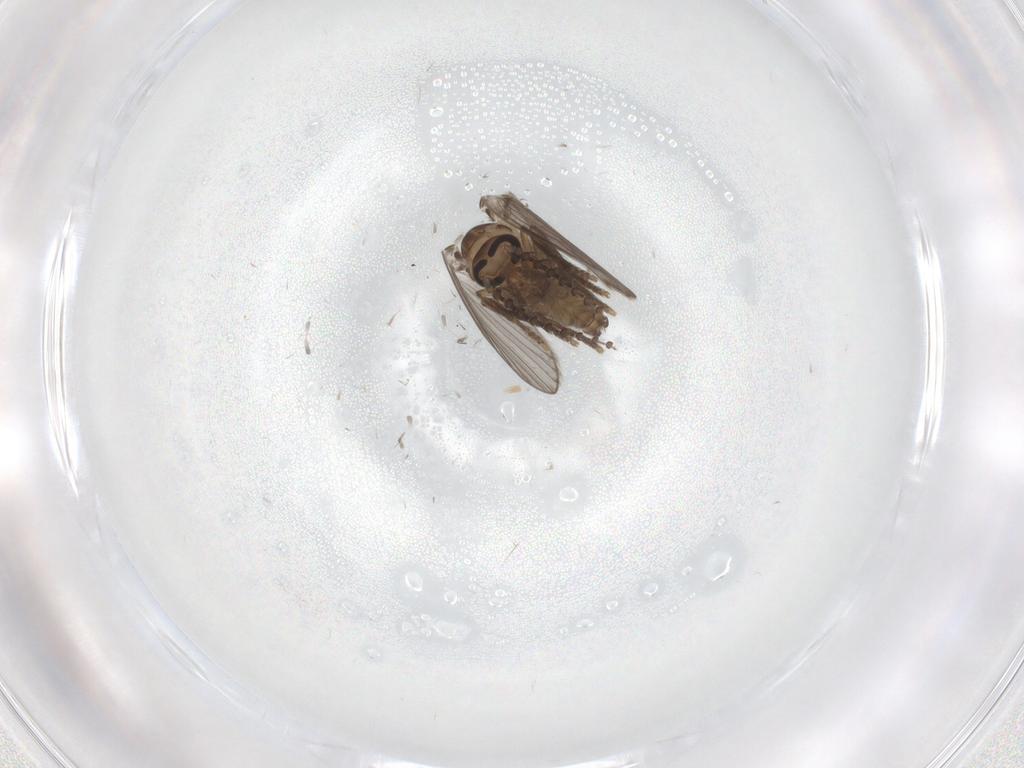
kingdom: Animalia
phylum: Arthropoda
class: Insecta
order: Diptera
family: Psychodidae
